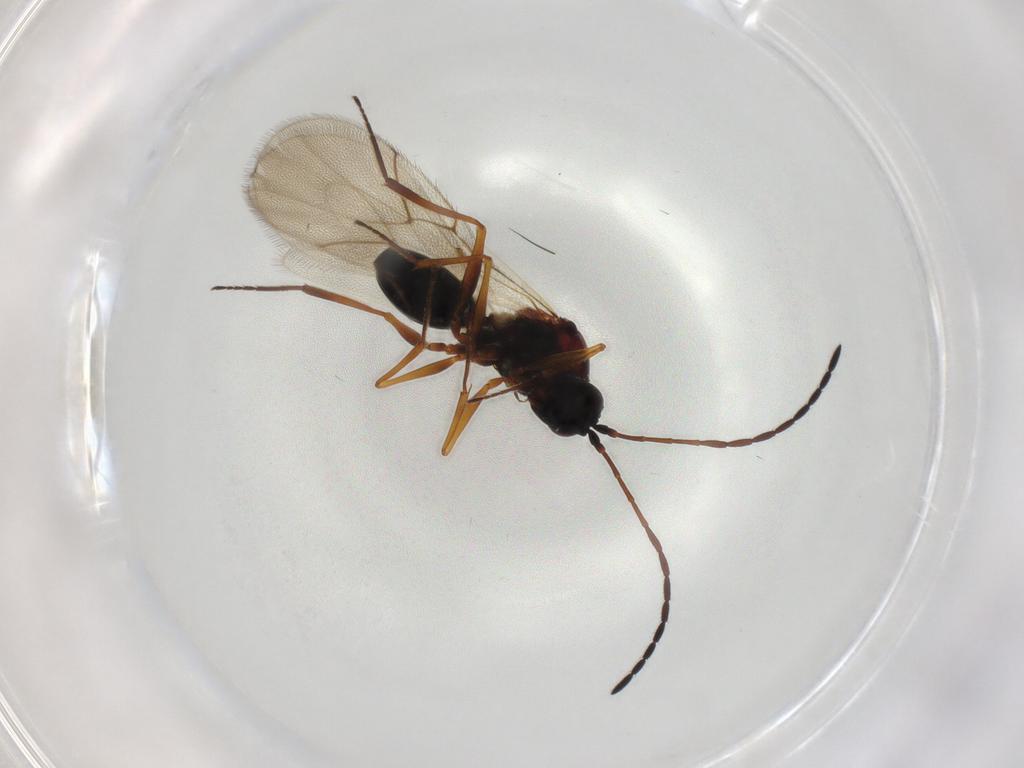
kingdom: Animalia
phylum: Arthropoda
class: Insecta
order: Hymenoptera
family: Figitidae
